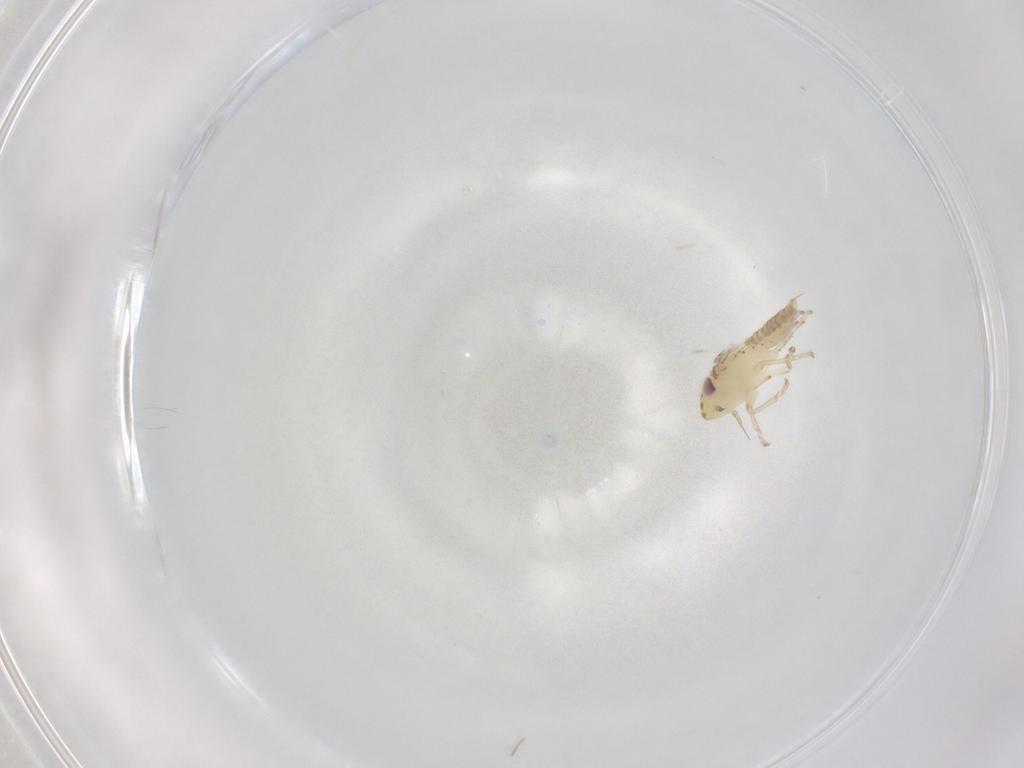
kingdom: Animalia
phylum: Arthropoda
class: Insecta
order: Hemiptera
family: Cicadellidae
